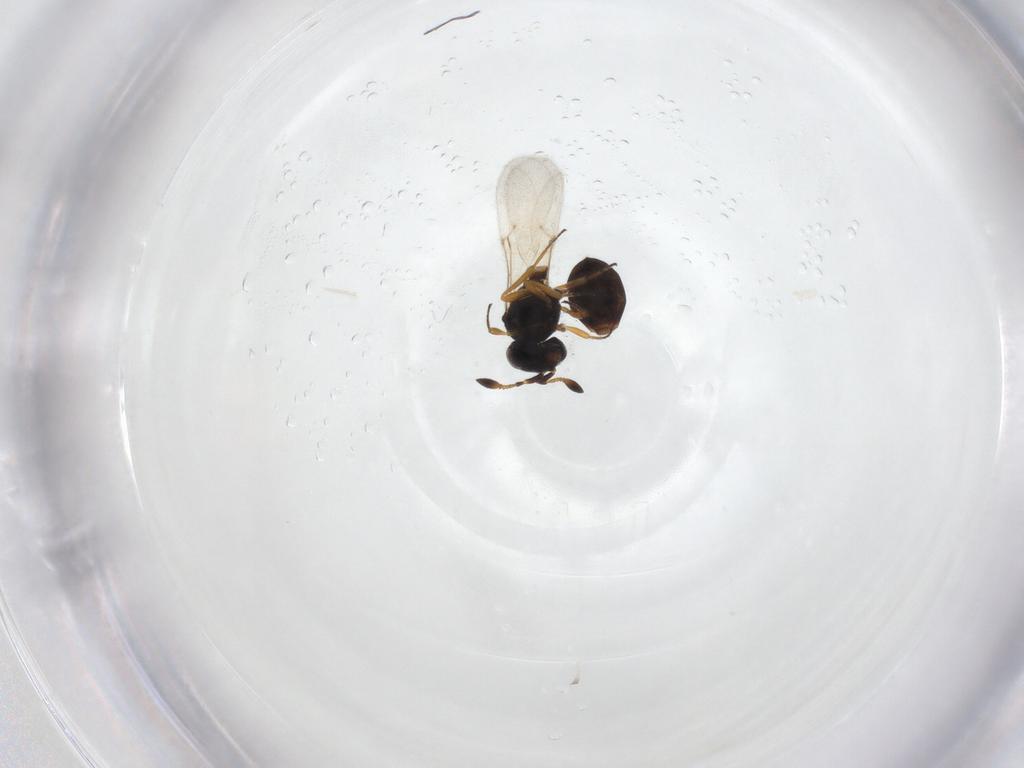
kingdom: Animalia
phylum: Arthropoda
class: Insecta
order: Hymenoptera
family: Scelionidae
